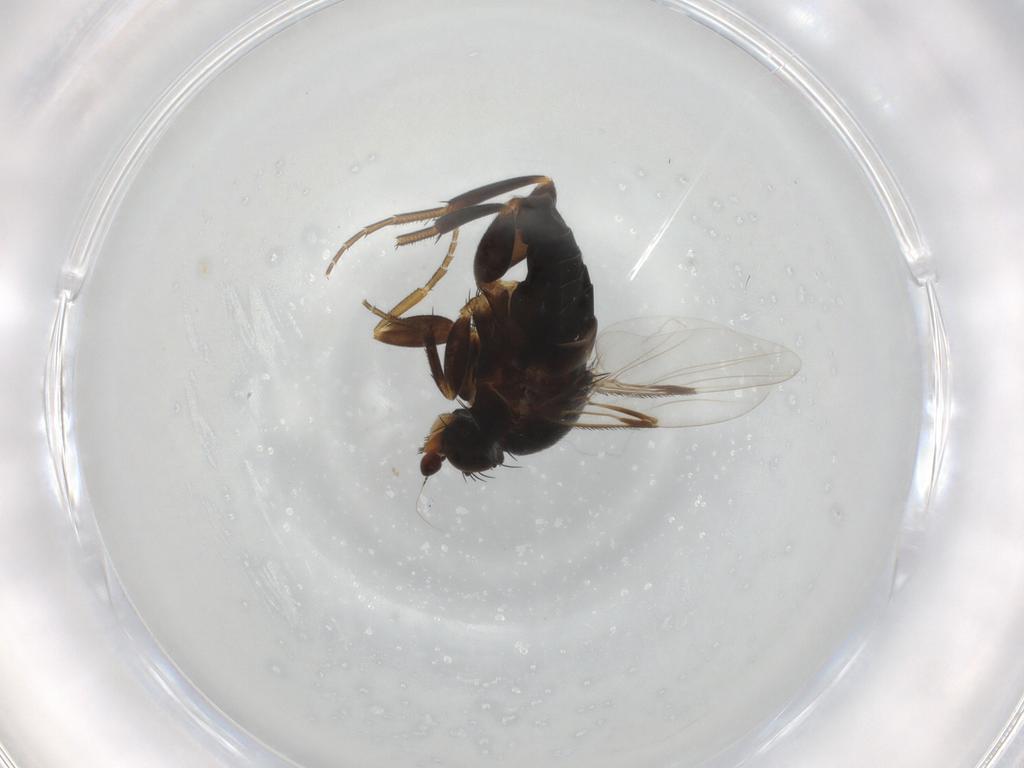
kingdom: Animalia
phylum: Arthropoda
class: Insecta
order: Diptera
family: Phoridae
